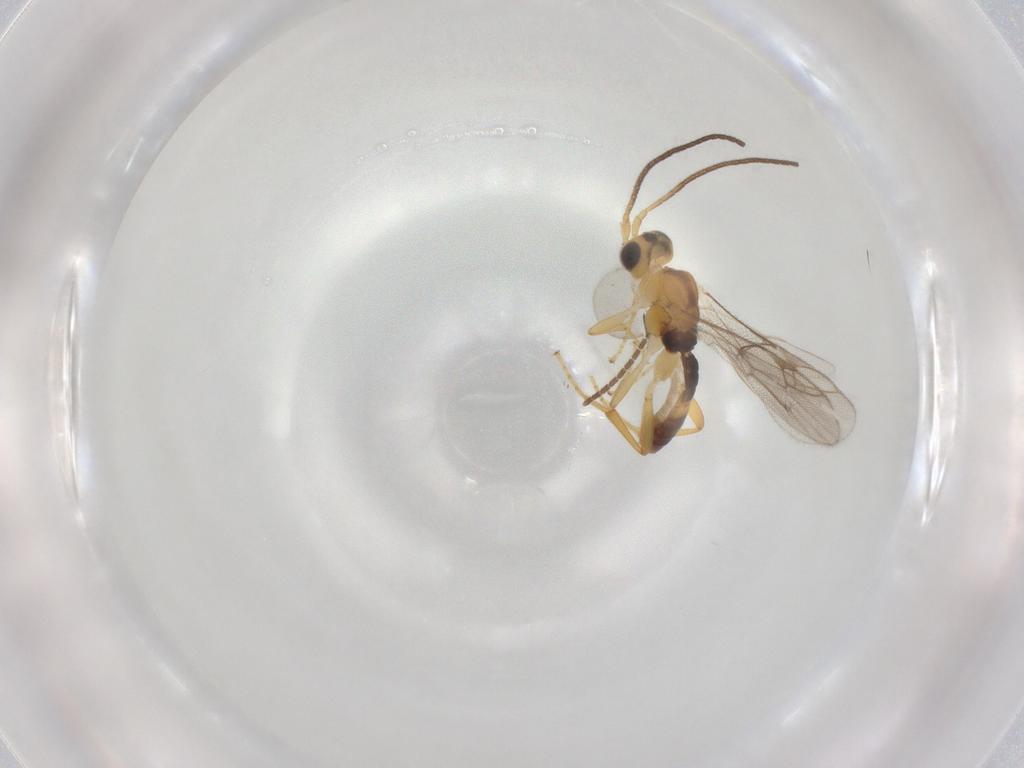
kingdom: Animalia
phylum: Arthropoda
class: Insecta
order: Hymenoptera
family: Ichneumonidae
